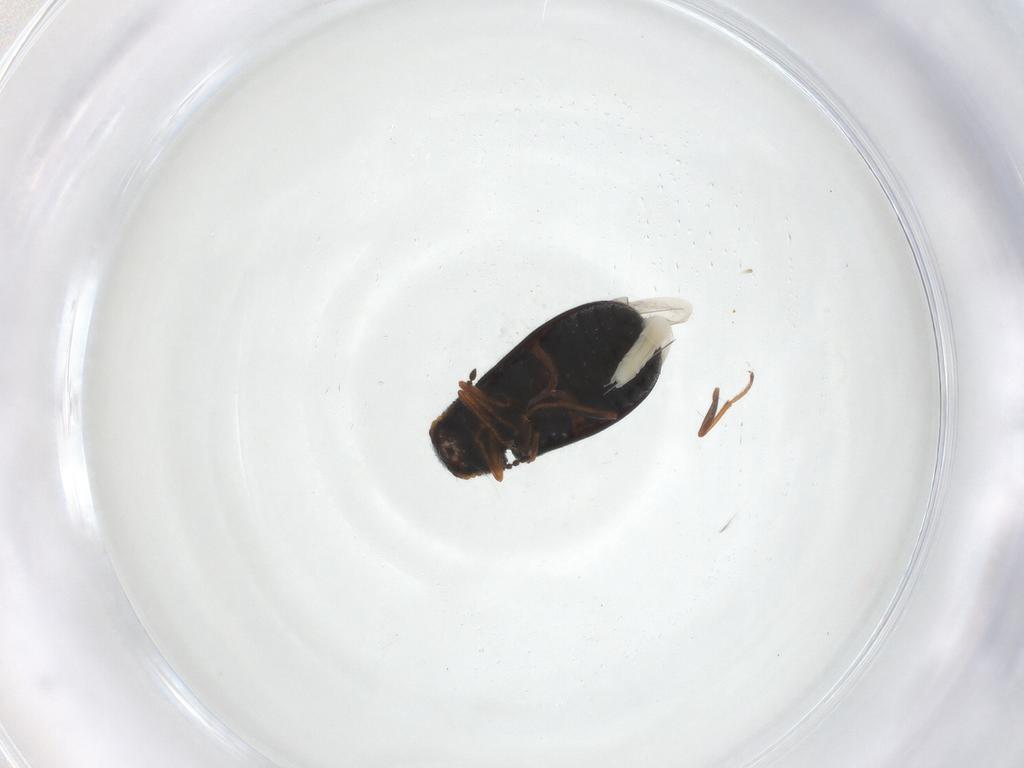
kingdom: Animalia
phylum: Arthropoda
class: Insecta
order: Coleoptera
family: Melyridae
